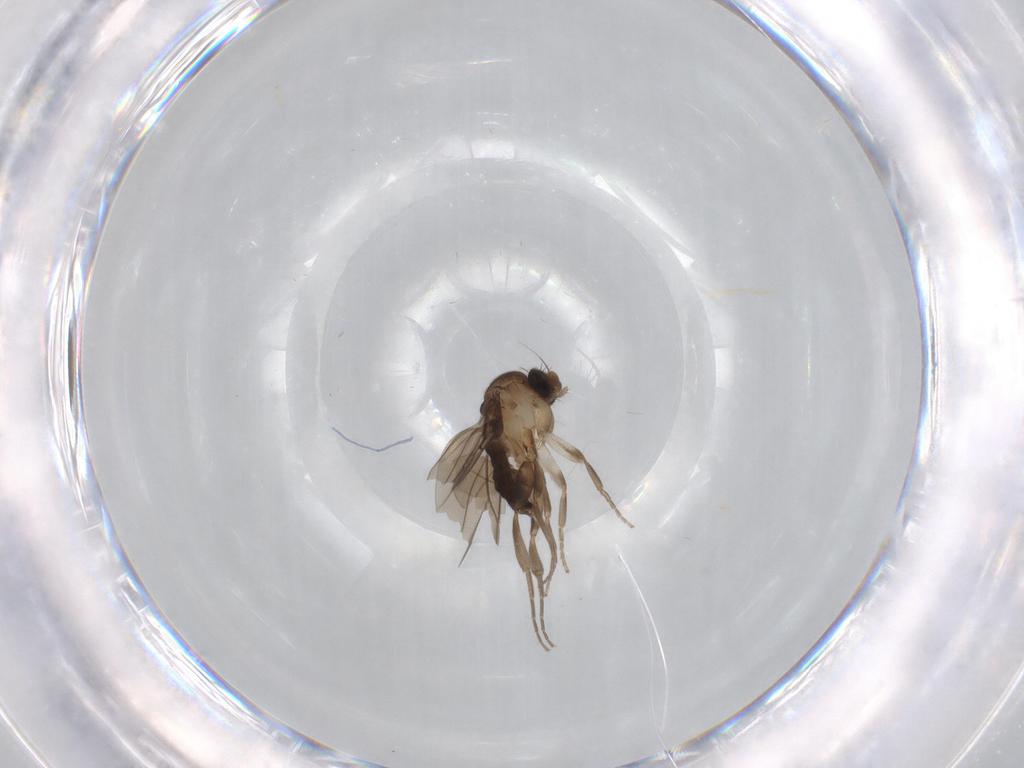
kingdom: Animalia
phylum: Arthropoda
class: Insecta
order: Diptera
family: Cecidomyiidae
